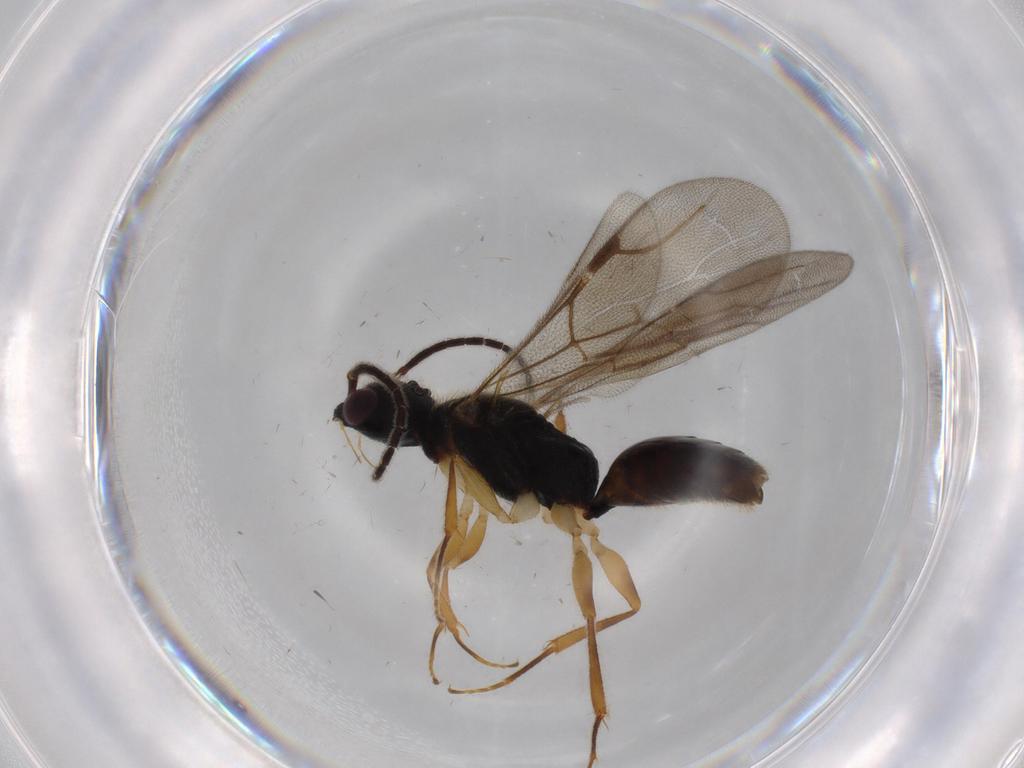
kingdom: Animalia
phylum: Arthropoda
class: Insecta
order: Hymenoptera
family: Bethylidae
